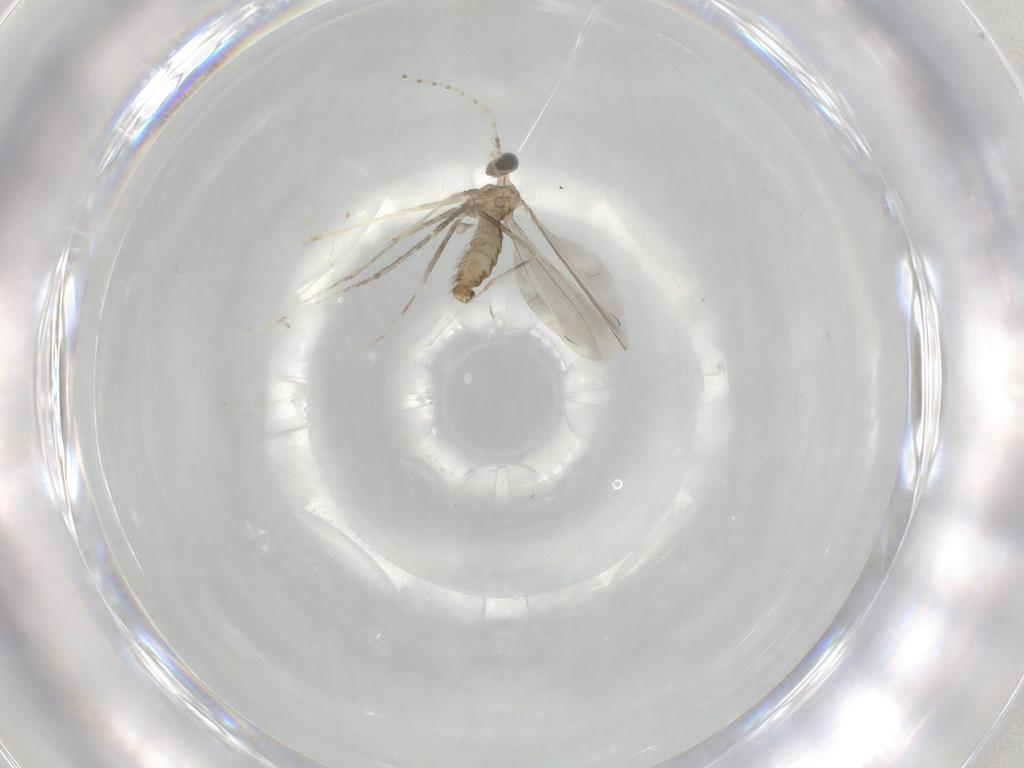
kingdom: Animalia
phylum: Arthropoda
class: Insecta
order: Diptera
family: Cecidomyiidae
